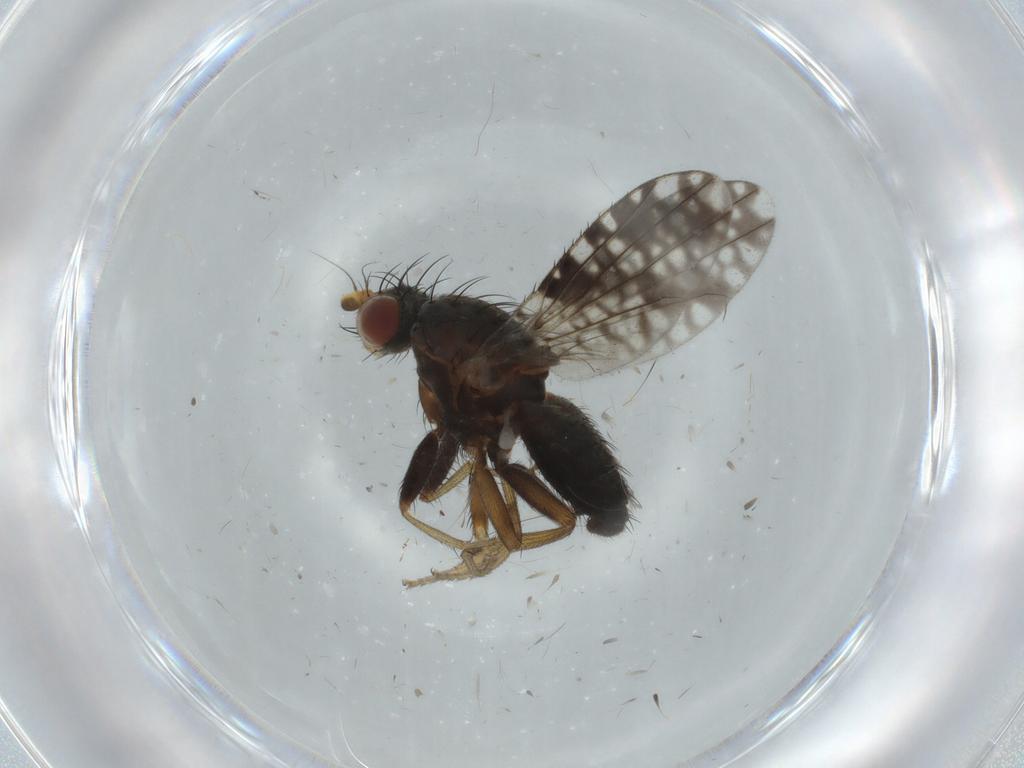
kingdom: Animalia
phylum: Arthropoda
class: Insecta
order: Diptera
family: Tephritidae
